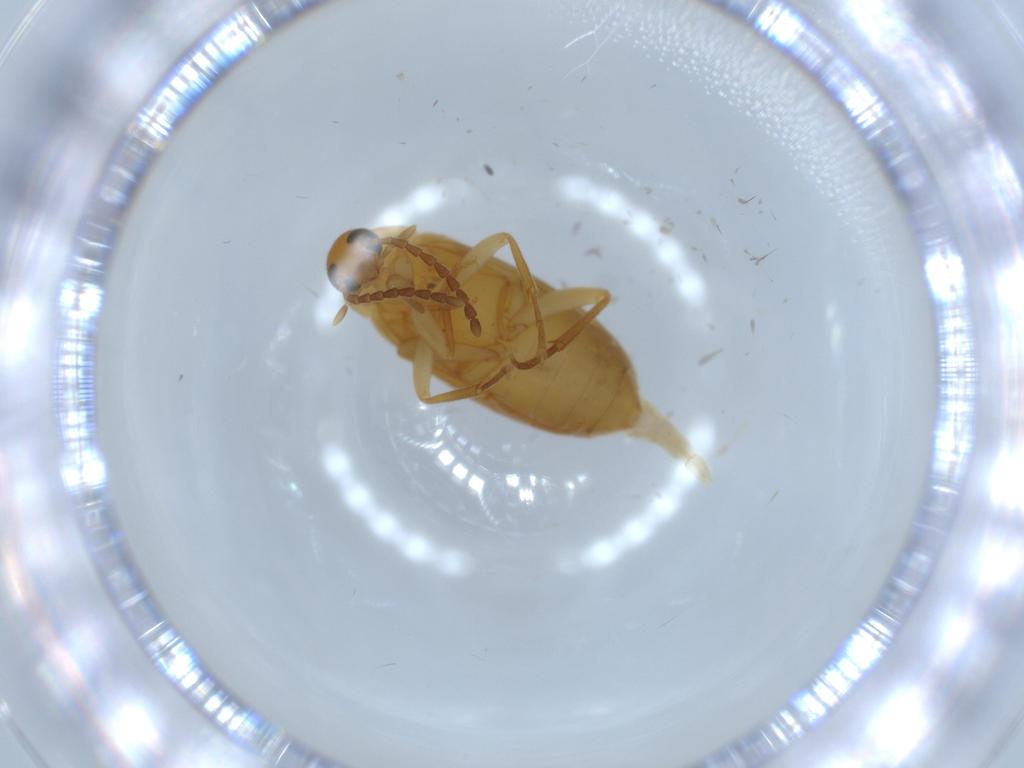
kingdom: Animalia
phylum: Arthropoda
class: Insecta
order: Coleoptera
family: Scraptiidae
